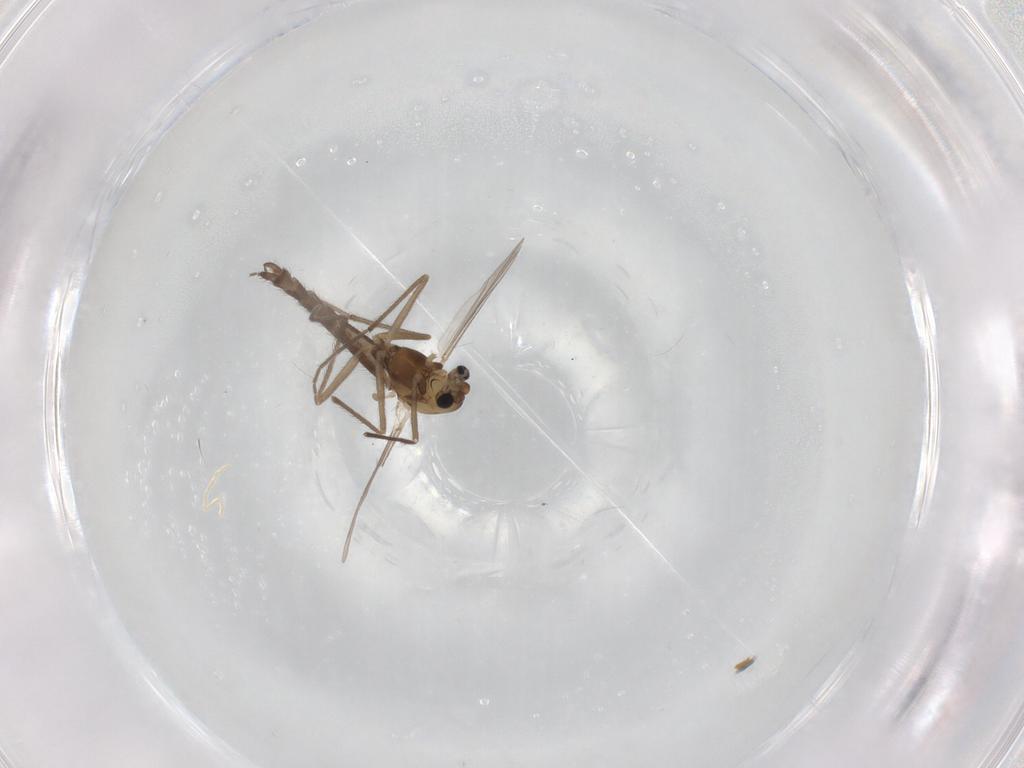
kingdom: Animalia
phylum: Arthropoda
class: Insecta
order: Diptera
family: Chironomidae
